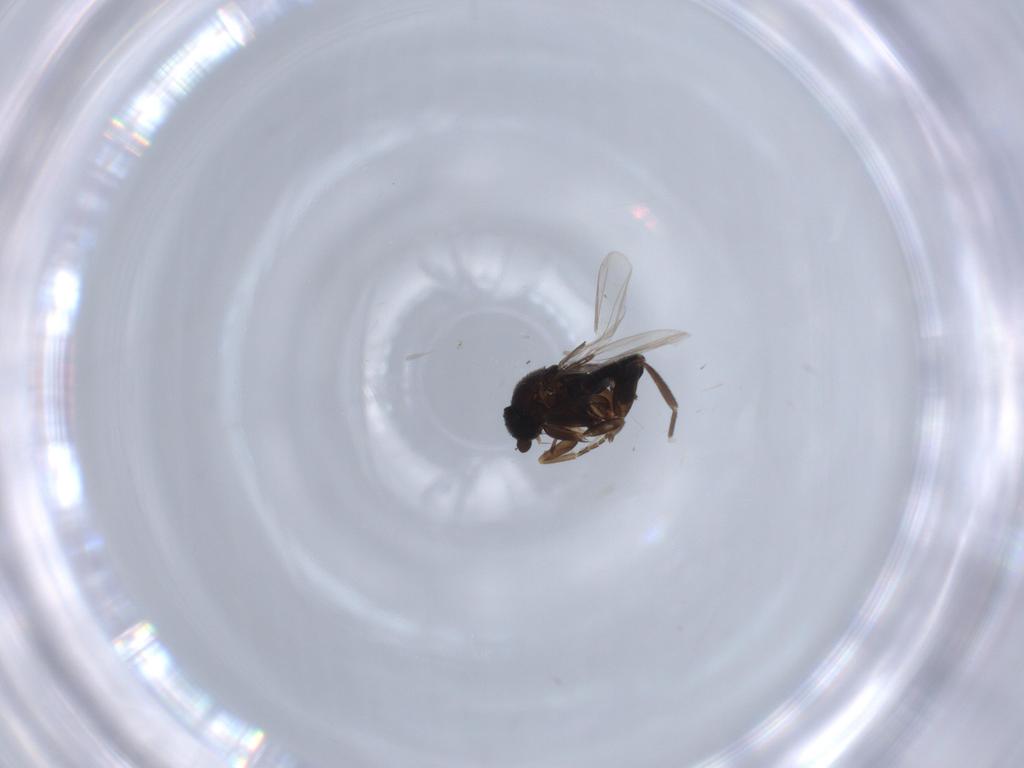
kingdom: Animalia
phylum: Arthropoda
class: Insecta
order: Diptera
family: Phoridae
